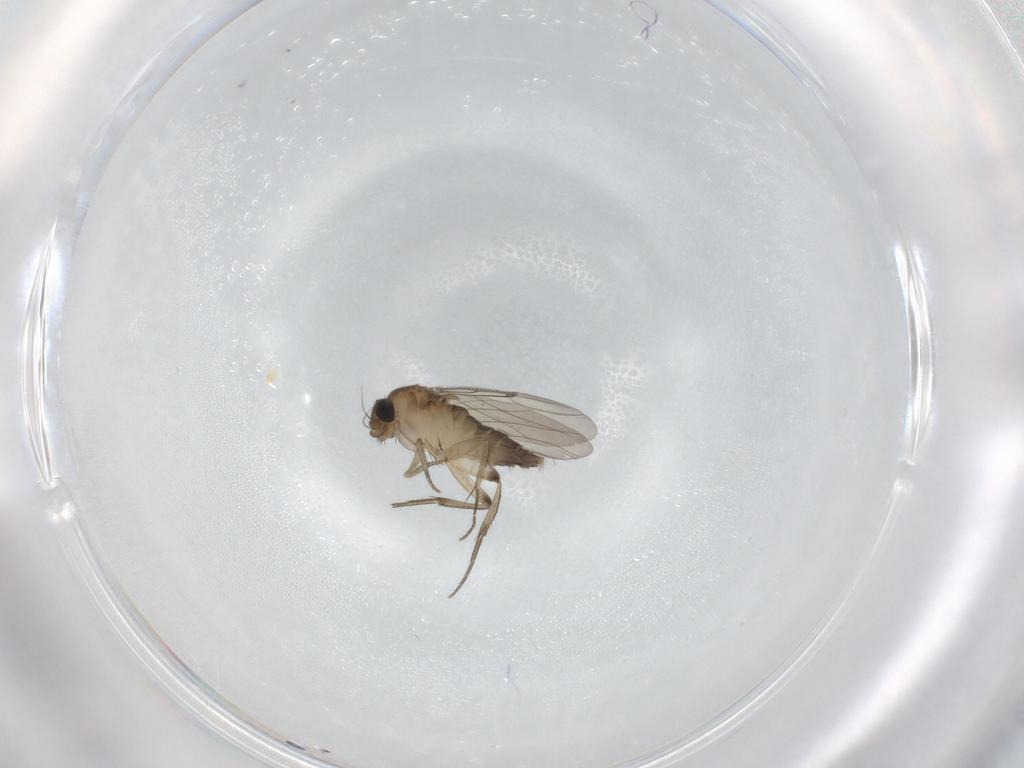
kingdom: Animalia
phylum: Arthropoda
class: Insecta
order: Diptera
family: Phoridae
